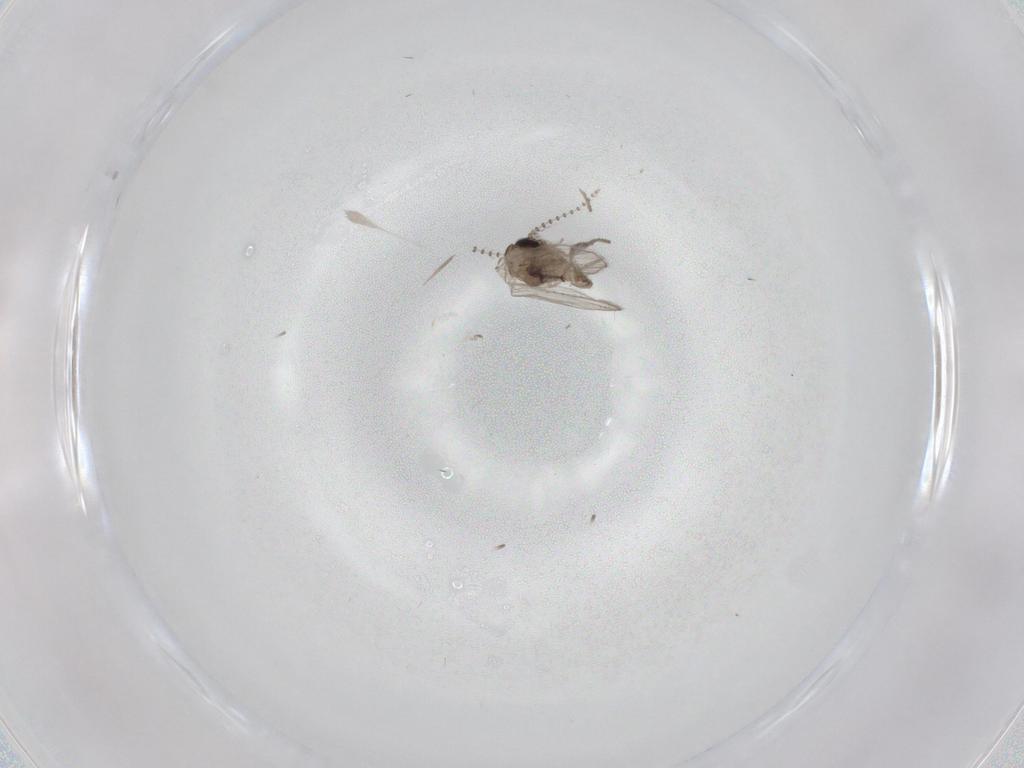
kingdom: Animalia
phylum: Arthropoda
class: Insecta
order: Diptera
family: Psychodidae
